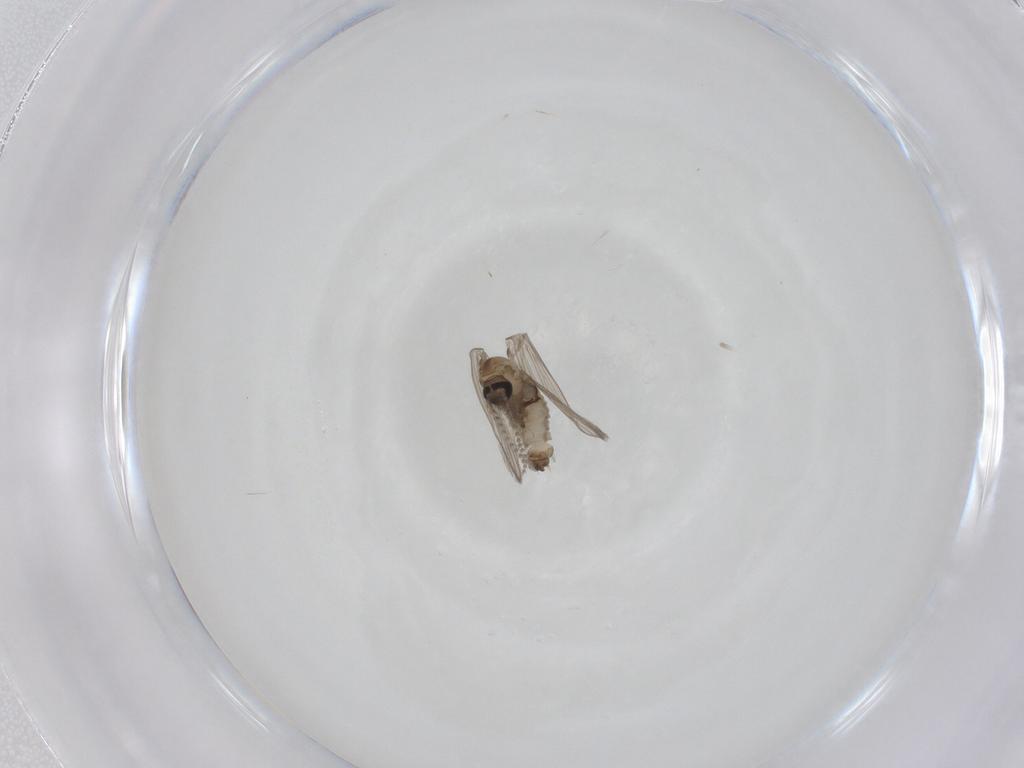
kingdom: Animalia
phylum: Arthropoda
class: Insecta
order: Diptera
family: Psychodidae
